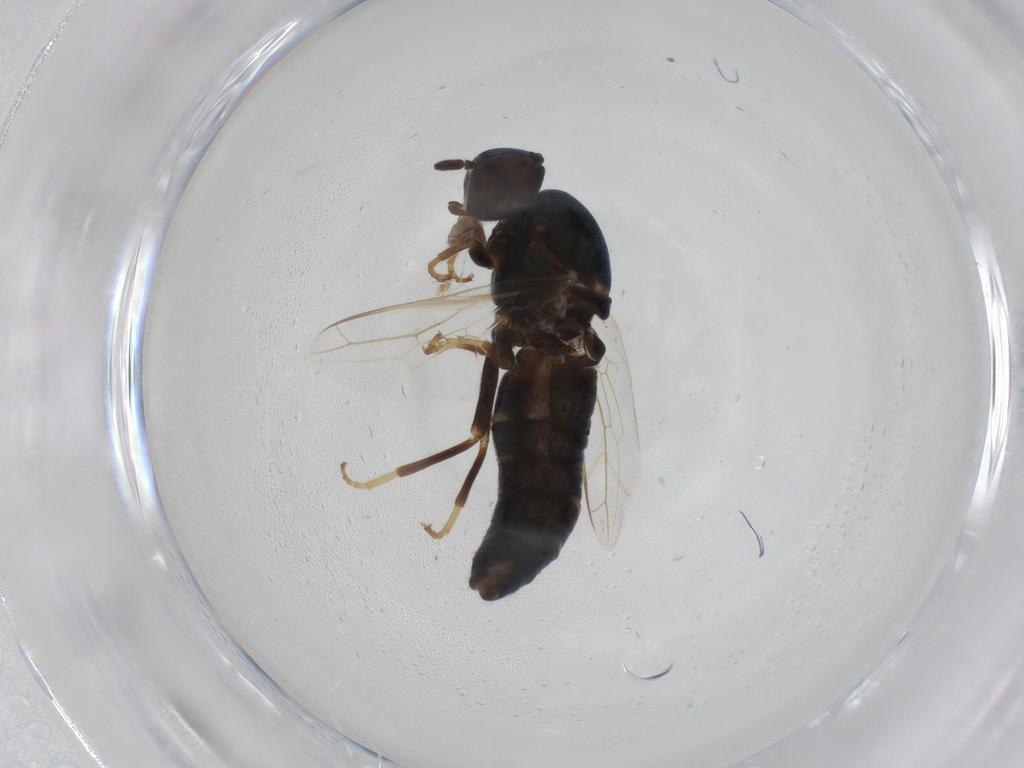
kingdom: Animalia
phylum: Arthropoda
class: Insecta
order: Diptera
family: Scenopinidae
